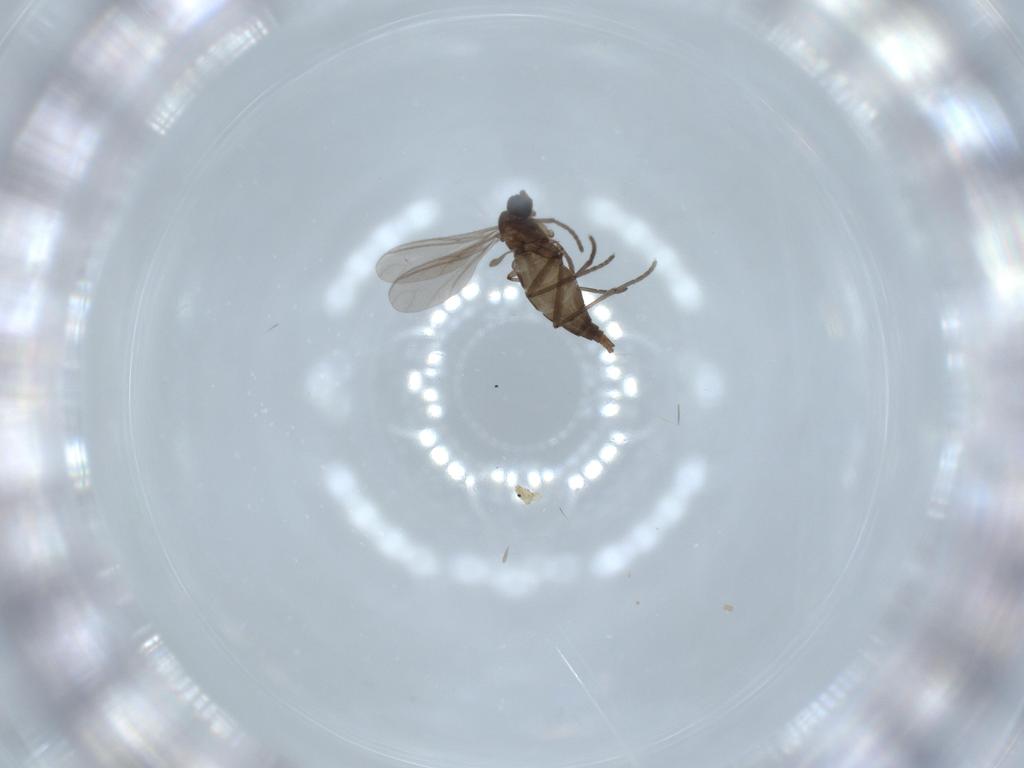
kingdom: Animalia
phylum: Arthropoda
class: Insecta
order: Diptera
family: Sciaridae
